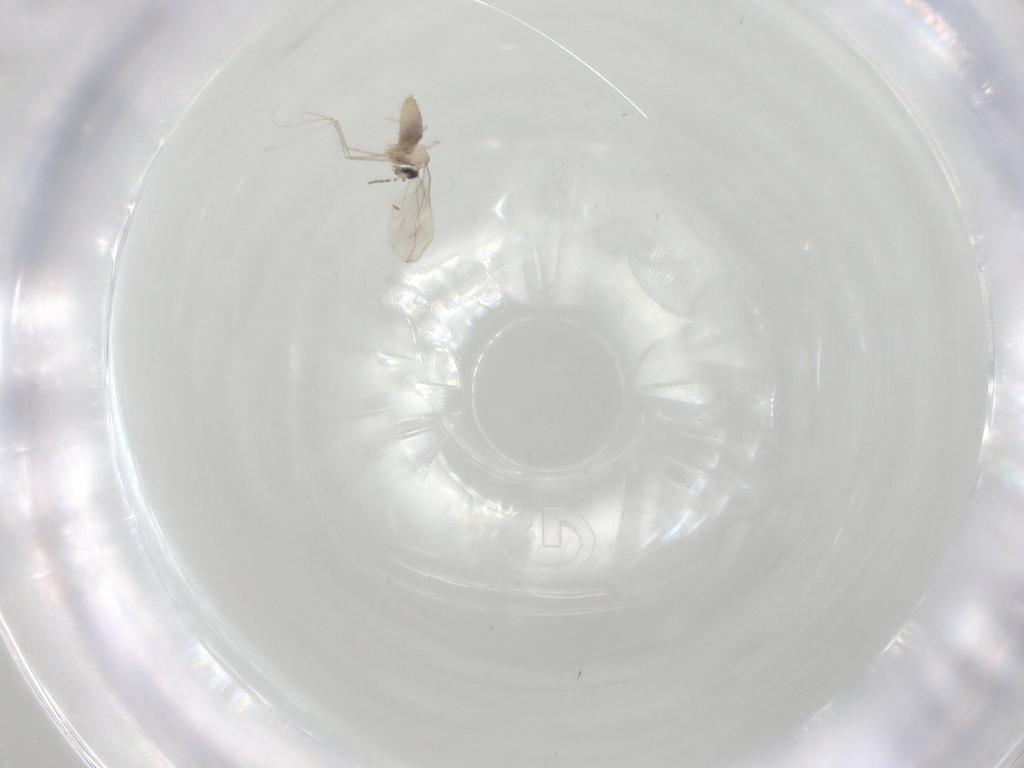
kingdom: Animalia
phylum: Arthropoda
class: Insecta
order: Diptera
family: Cecidomyiidae
